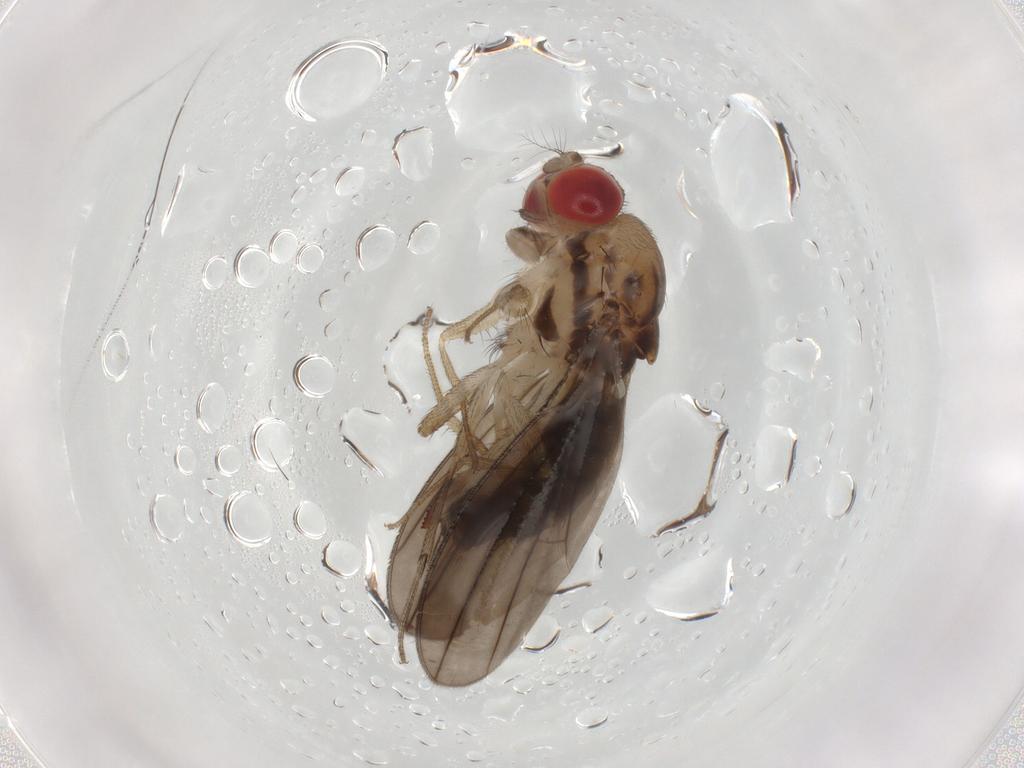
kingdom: Animalia
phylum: Arthropoda
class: Insecta
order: Diptera
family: Drosophilidae
